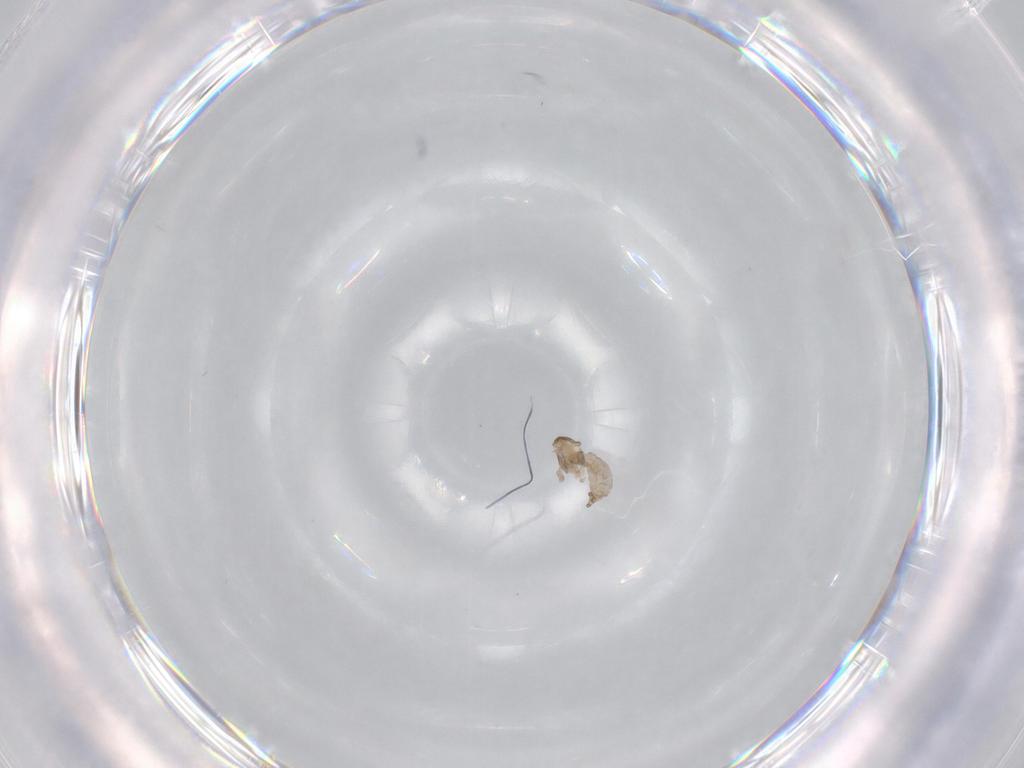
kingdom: Animalia
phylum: Arthropoda
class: Insecta
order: Diptera
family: Cecidomyiidae
